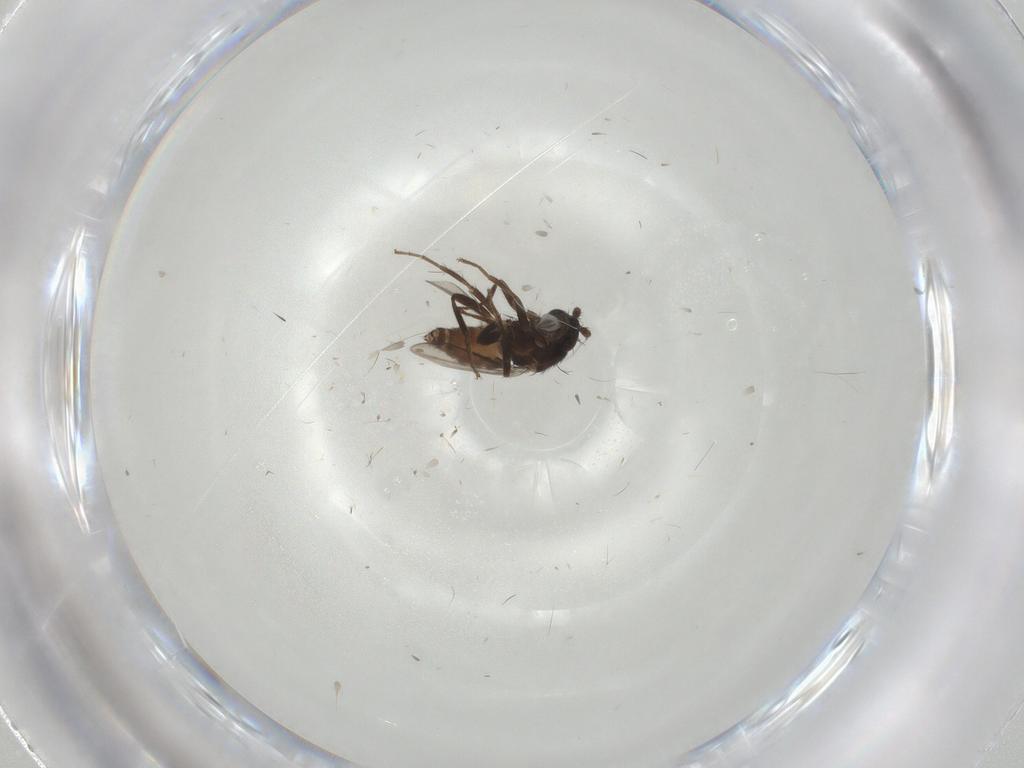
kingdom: Animalia
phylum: Arthropoda
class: Insecta
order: Diptera
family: Sphaeroceridae
